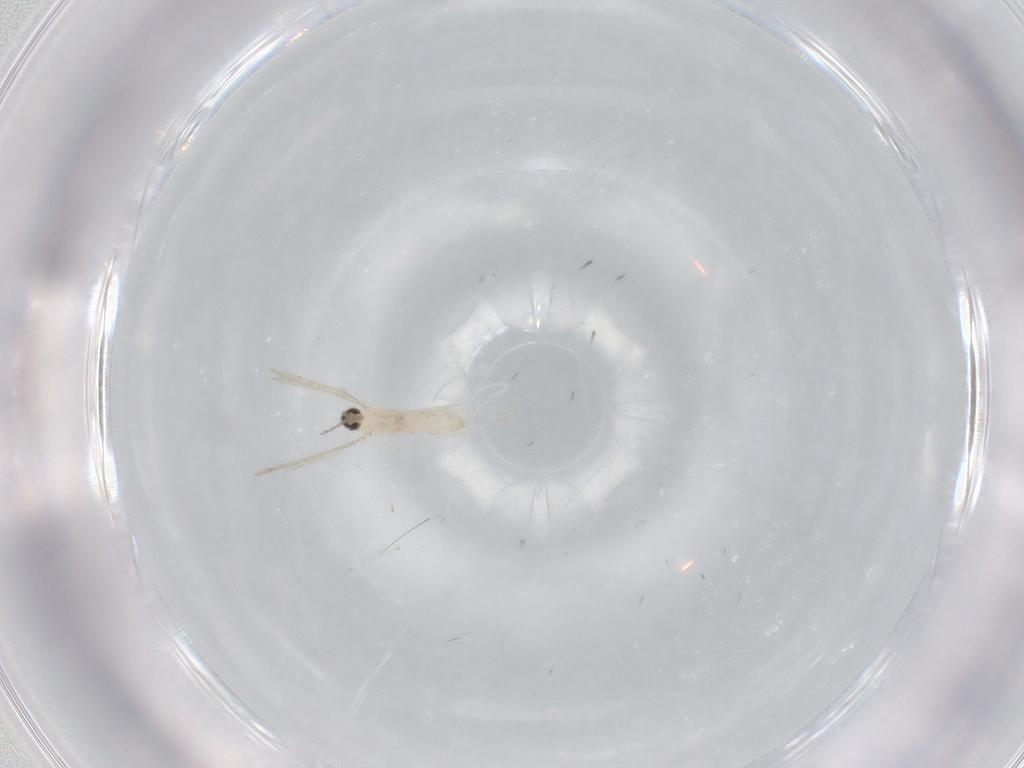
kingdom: Animalia
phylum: Arthropoda
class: Insecta
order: Diptera
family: Cecidomyiidae
